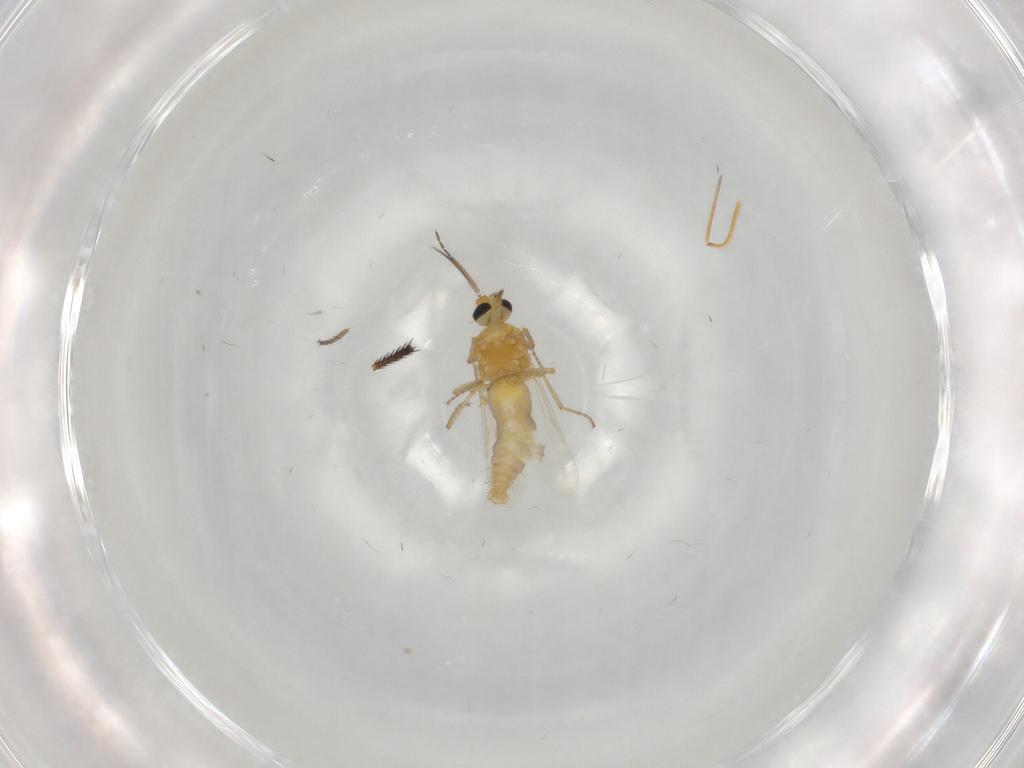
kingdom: Animalia
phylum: Arthropoda
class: Insecta
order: Diptera
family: Ceratopogonidae
